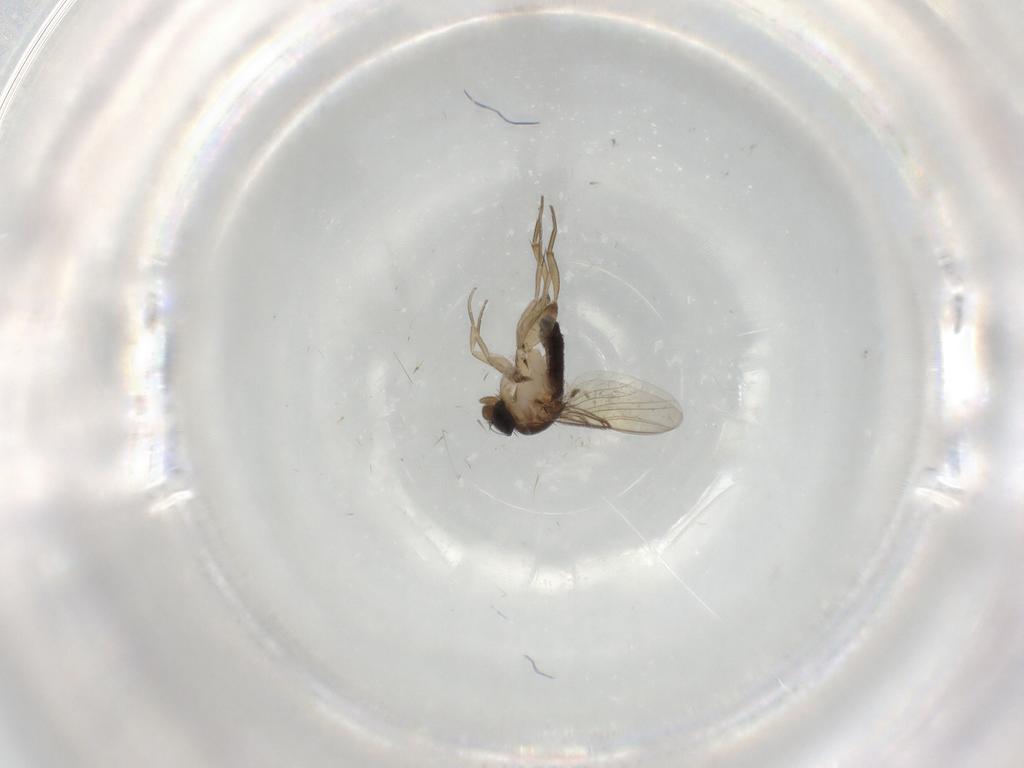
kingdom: Animalia
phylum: Arthropoda
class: Insecta
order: Diptera
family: Phoridae
